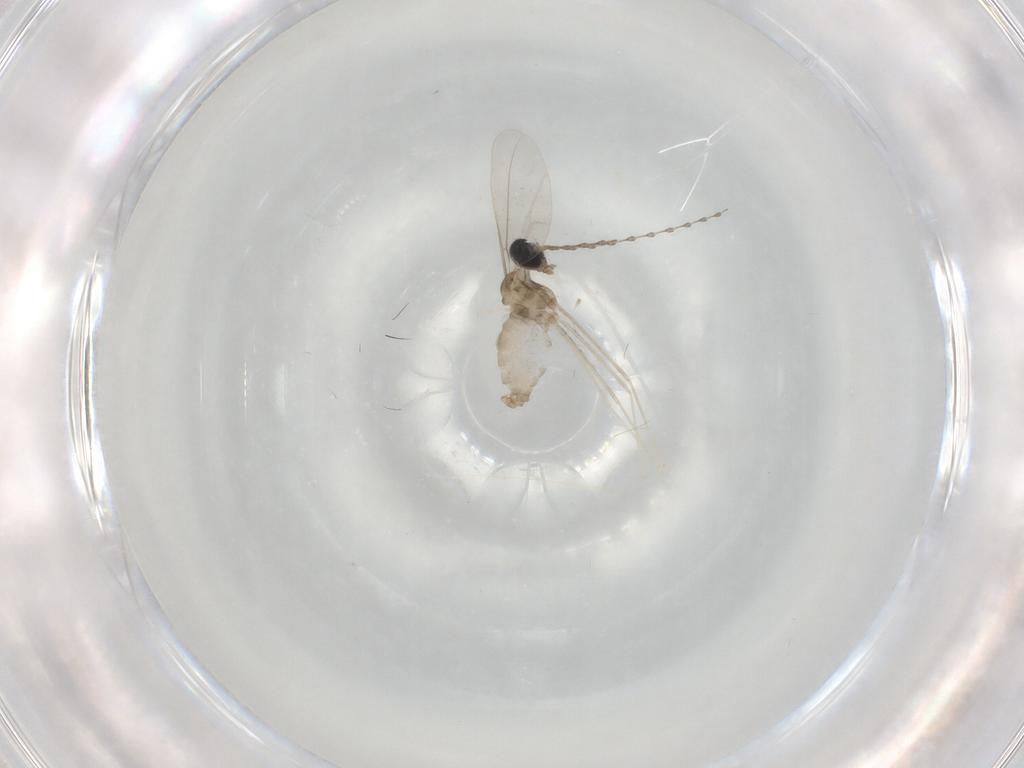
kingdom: Animalia
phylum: Arthropoda
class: Insecta
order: Diptera
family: Cecidomyiidae
